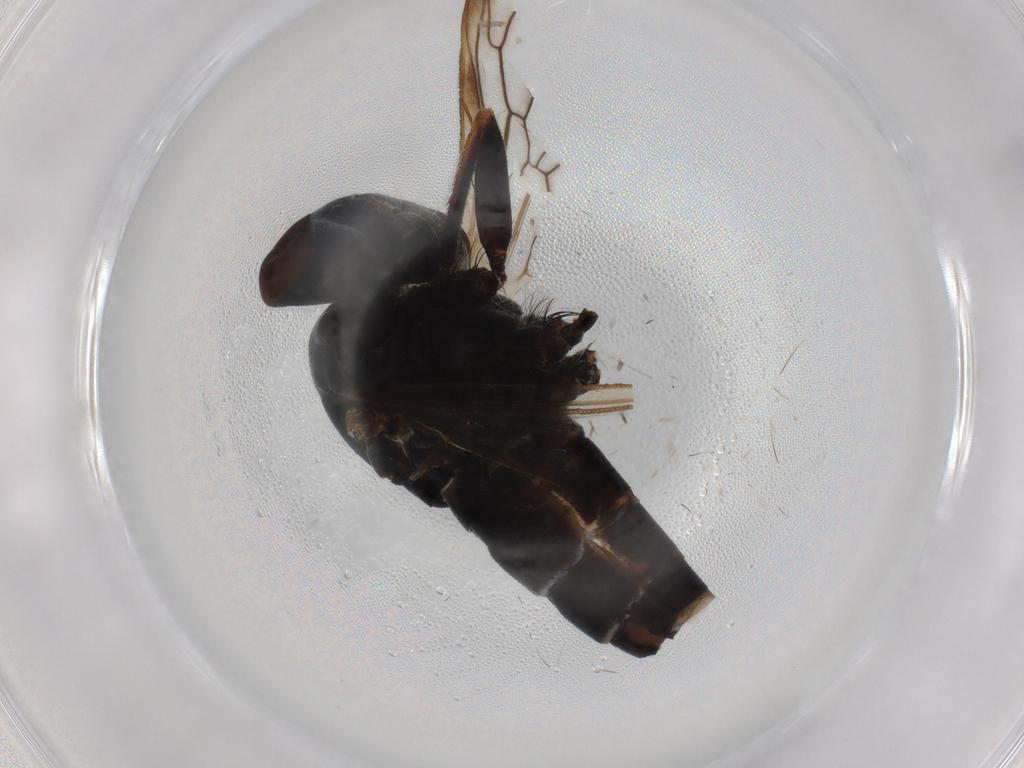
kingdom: Animalia
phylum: Arthropoda
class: Insecta
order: Diptera
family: Therevidae
